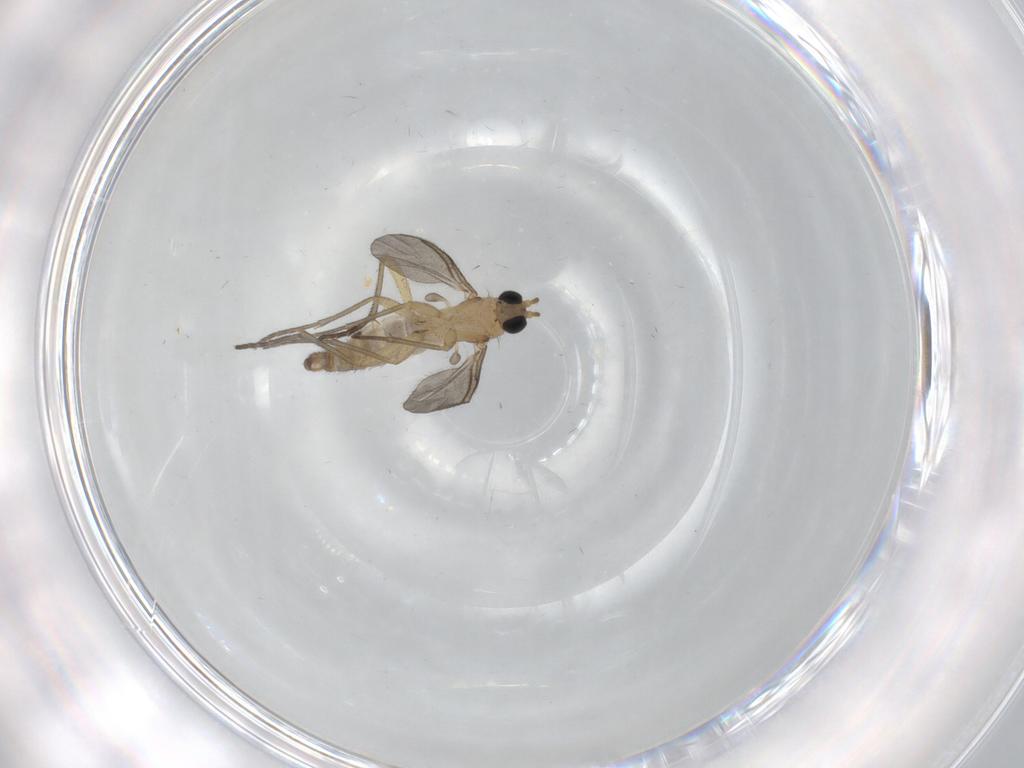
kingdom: Animalia
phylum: Arthropoda
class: Insecta
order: Diptera
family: Sciaridae
